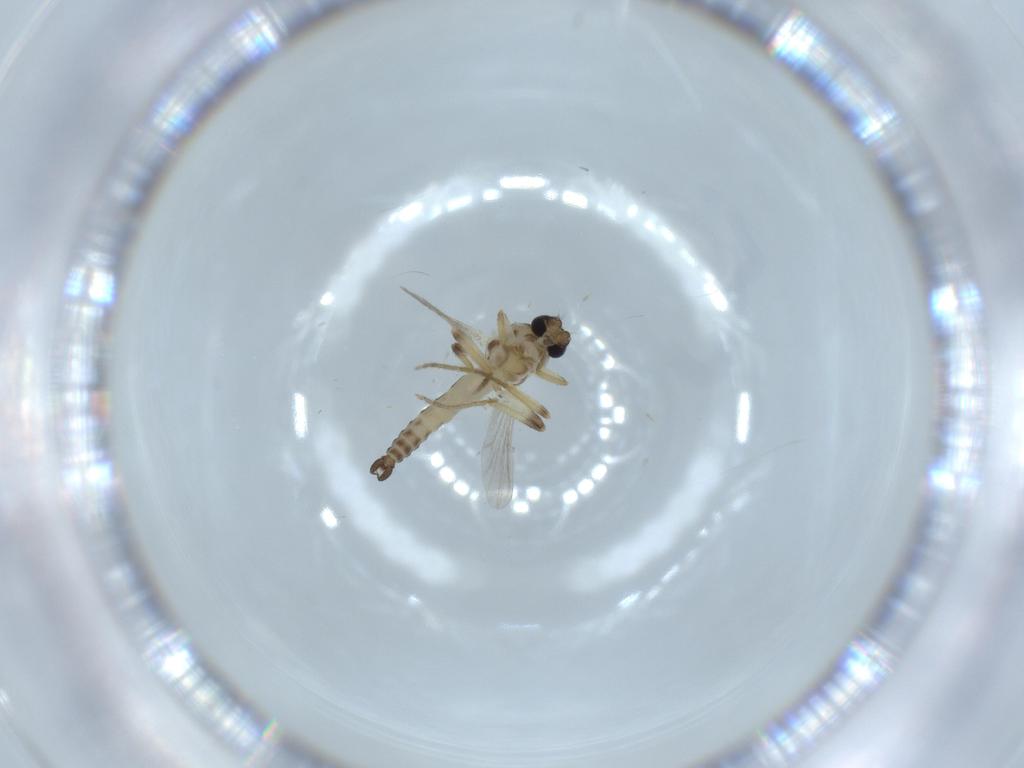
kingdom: Animalia
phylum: Arthropoda
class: Insecta
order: Diptera
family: Ceratopogonidae
